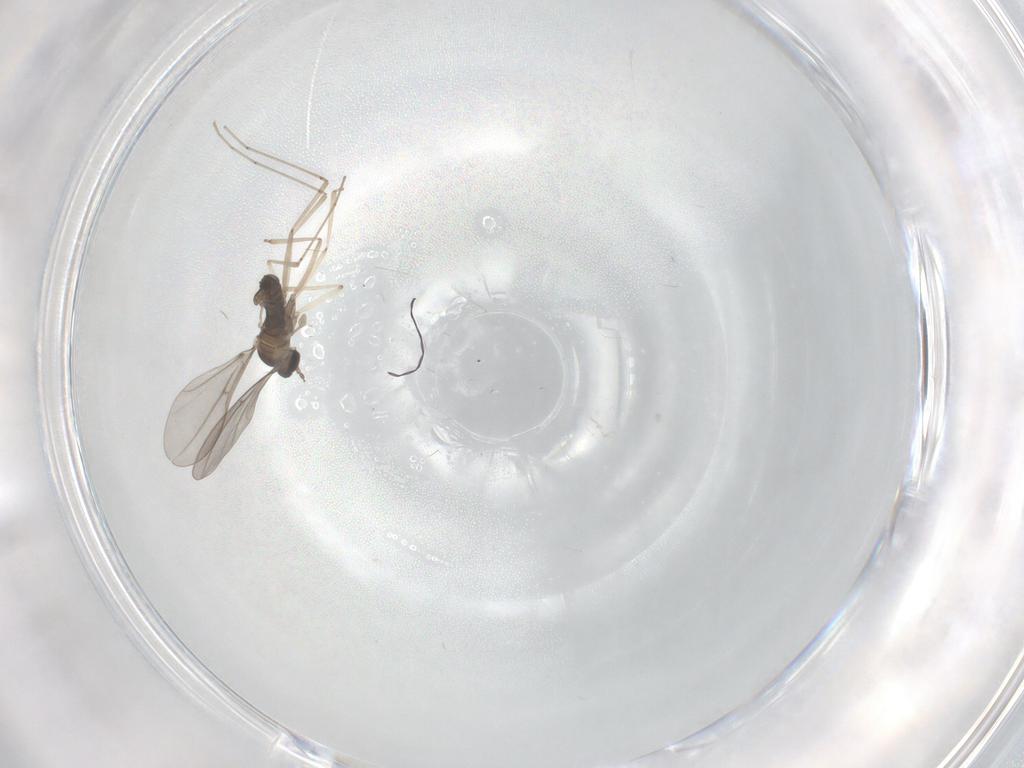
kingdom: Animalia
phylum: Arthropoda
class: Insecta
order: Diptera
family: Cecidomyiidae
